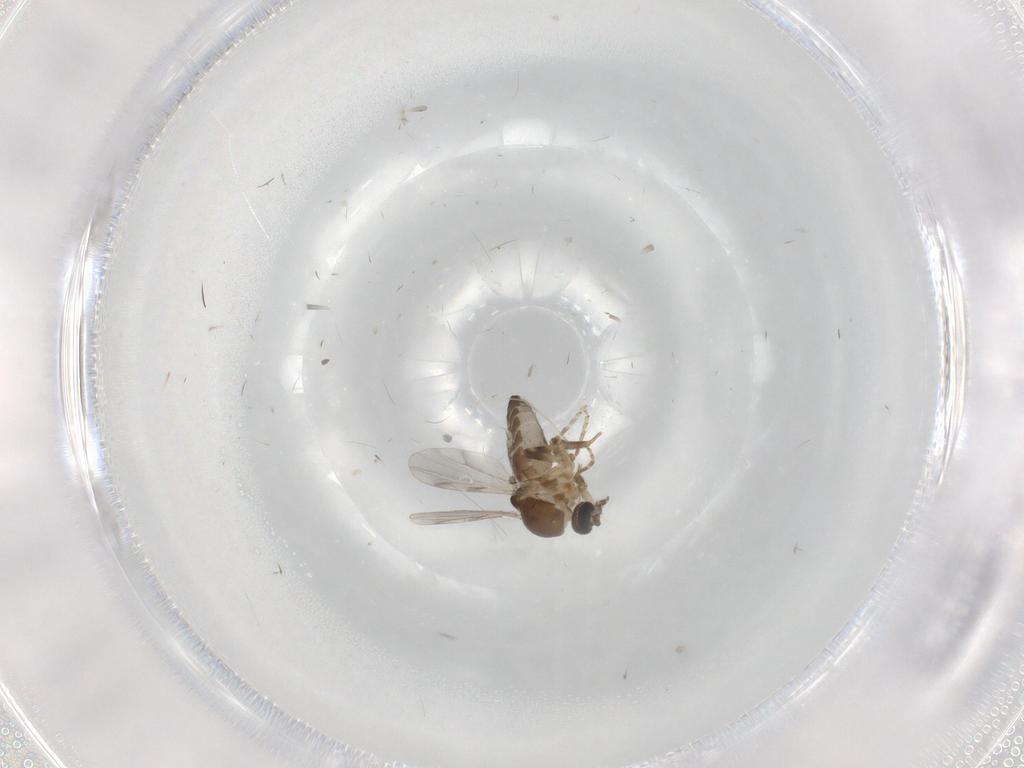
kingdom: Animalia
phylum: Arthropoda
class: Insecta
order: Diptera
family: Ceratopogonidae
